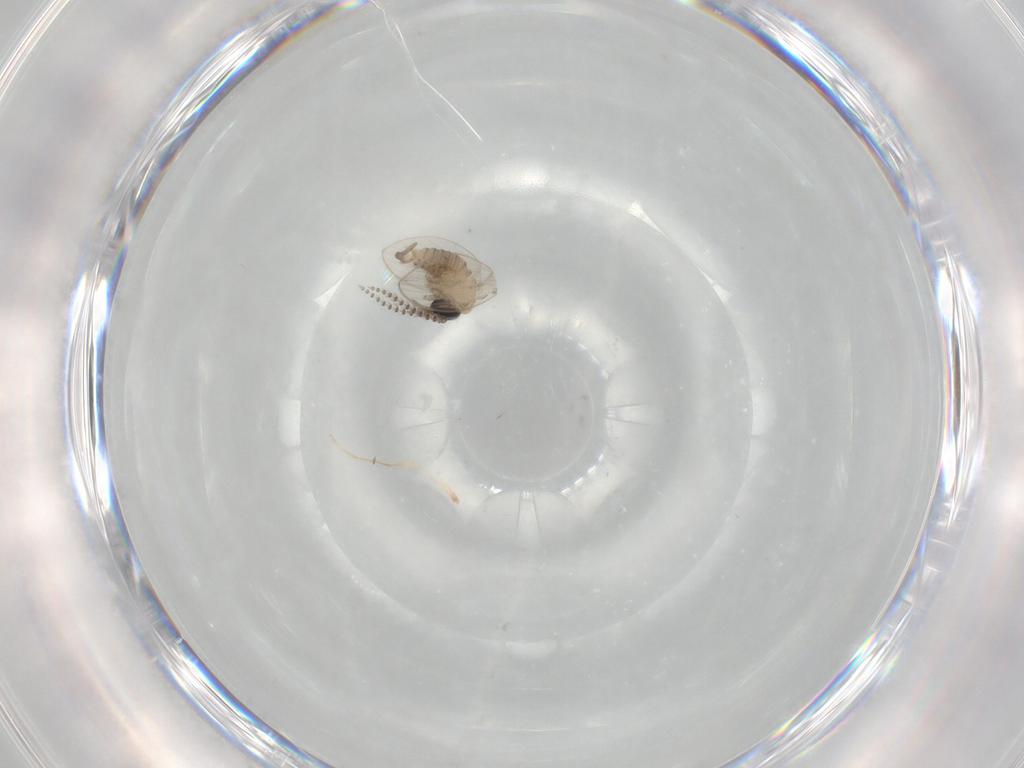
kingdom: Animalia
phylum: Arthropoda
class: Insecta
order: Diptera
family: Psychodidae
